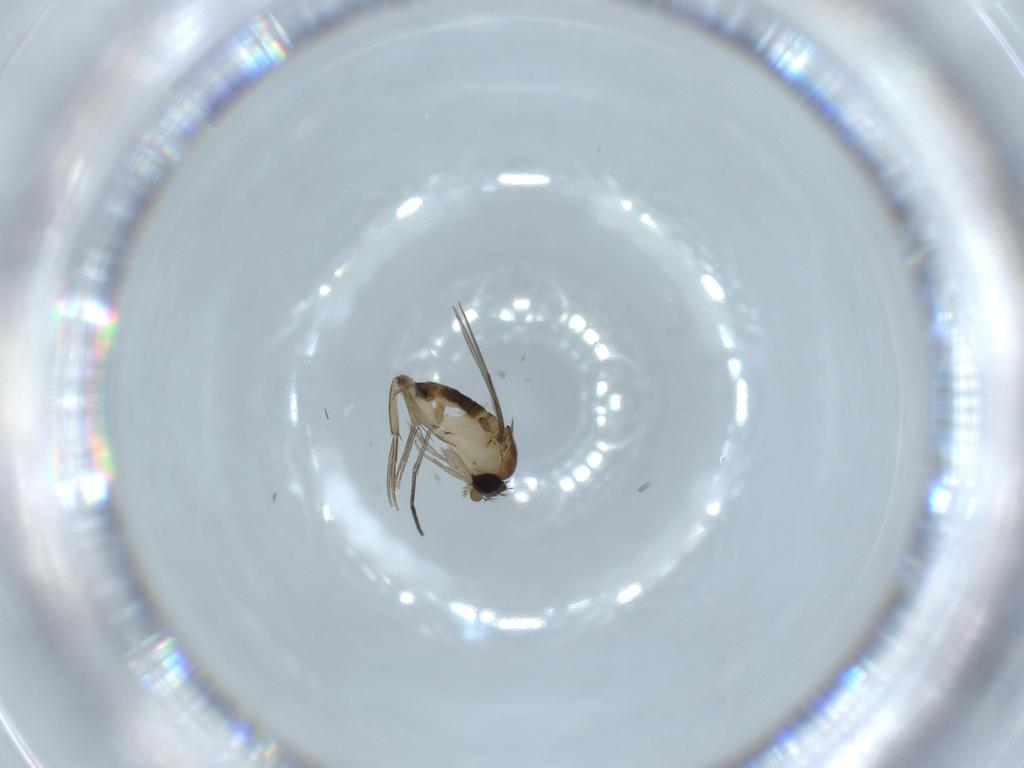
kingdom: Animalia
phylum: Arthropoda
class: Insecta
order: Diptera
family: Phoridae
